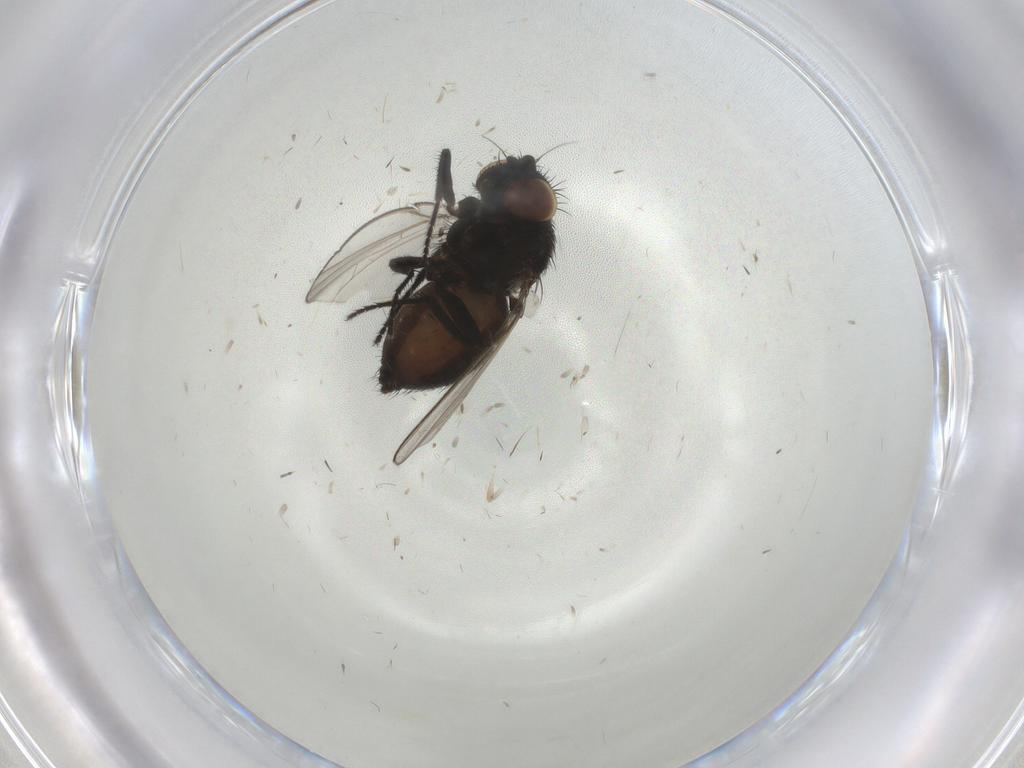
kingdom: Animalia
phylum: Arthropoda
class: Insecta
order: Diptera
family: Milichiidae
